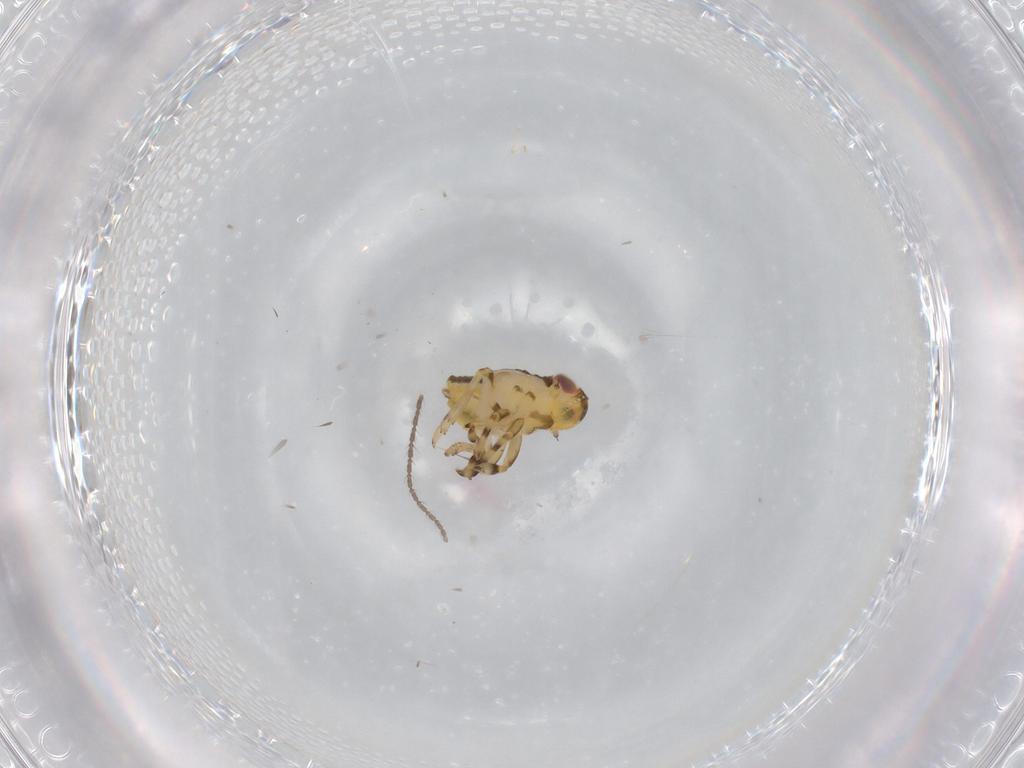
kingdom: Animalia
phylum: Arthropoda
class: Insecta
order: Hemiptera
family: Issidae
